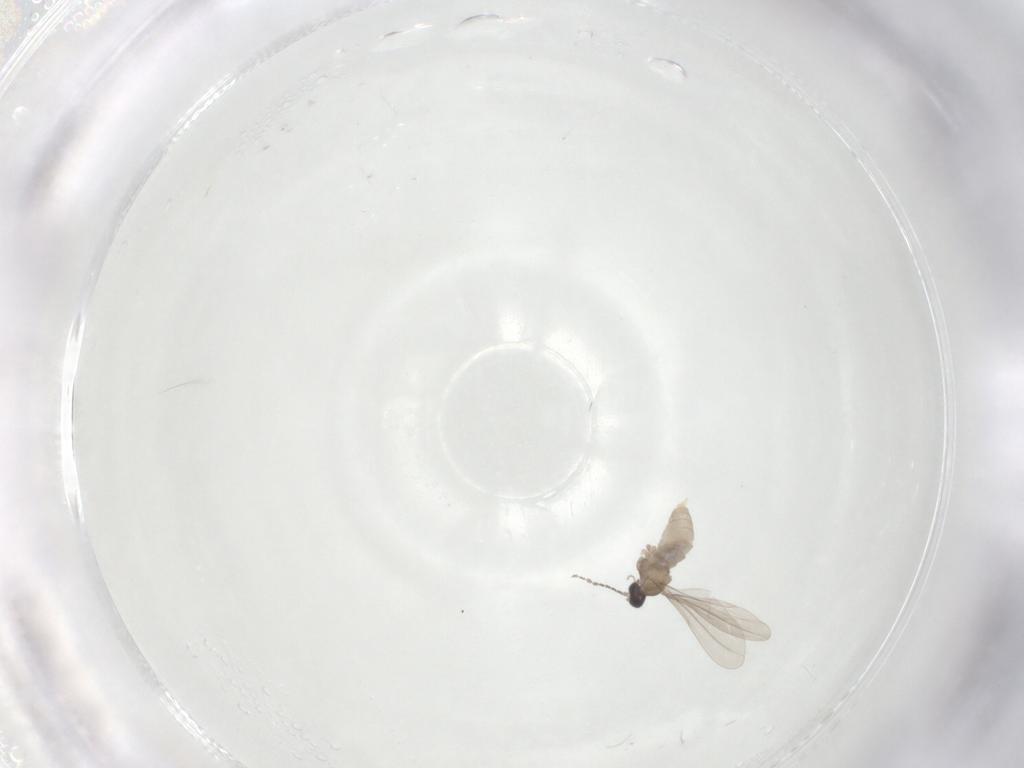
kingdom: Animalia
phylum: Arthropoda
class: Insecta
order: Diptera
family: Cecidomyiidae
